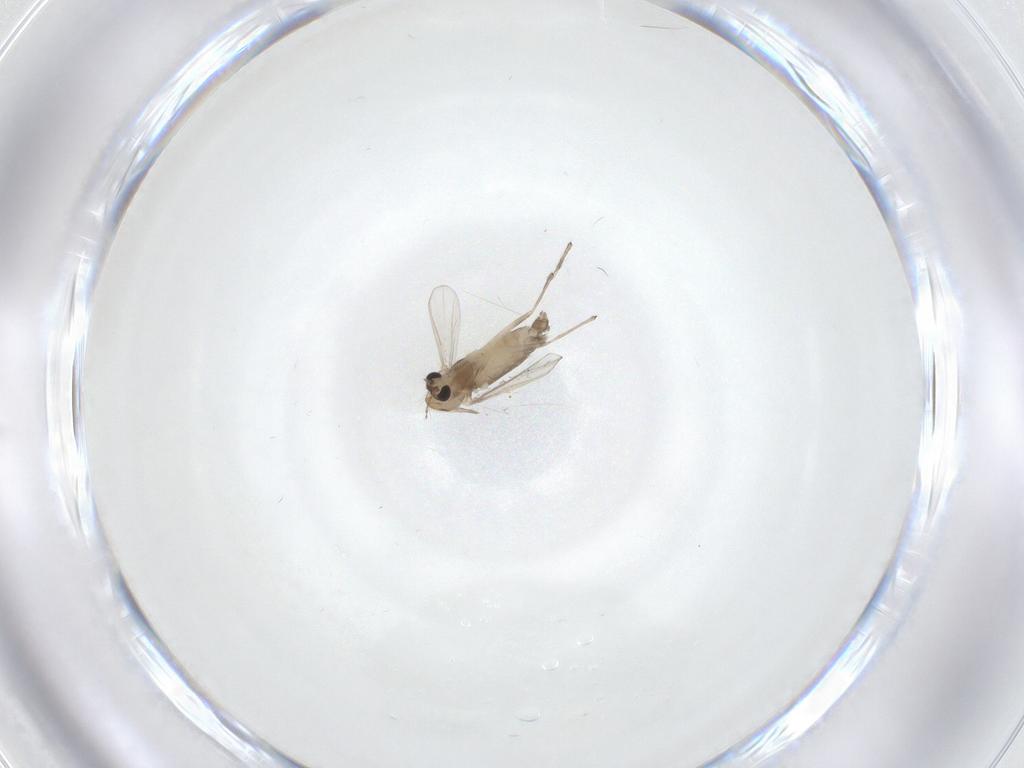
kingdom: Animalia
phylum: Arthropoda
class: Insecta
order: Diptera
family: Chironomidae
